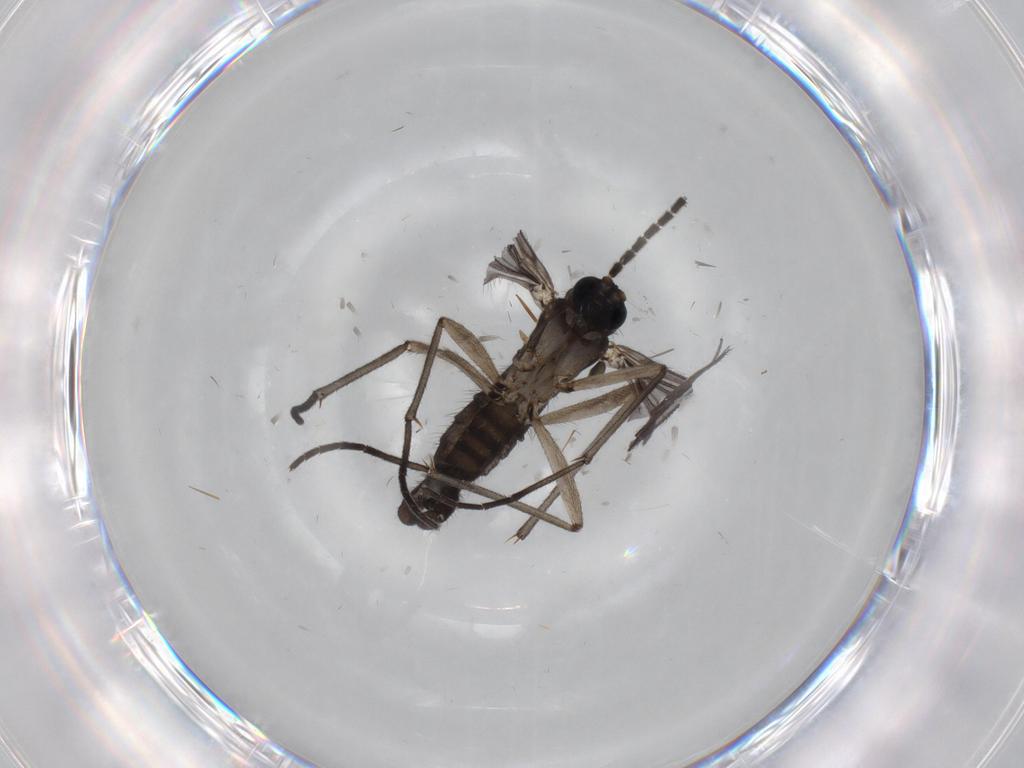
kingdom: Animalia
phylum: Arthropoda
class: Insecta
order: Diptera
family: Sciaridae
